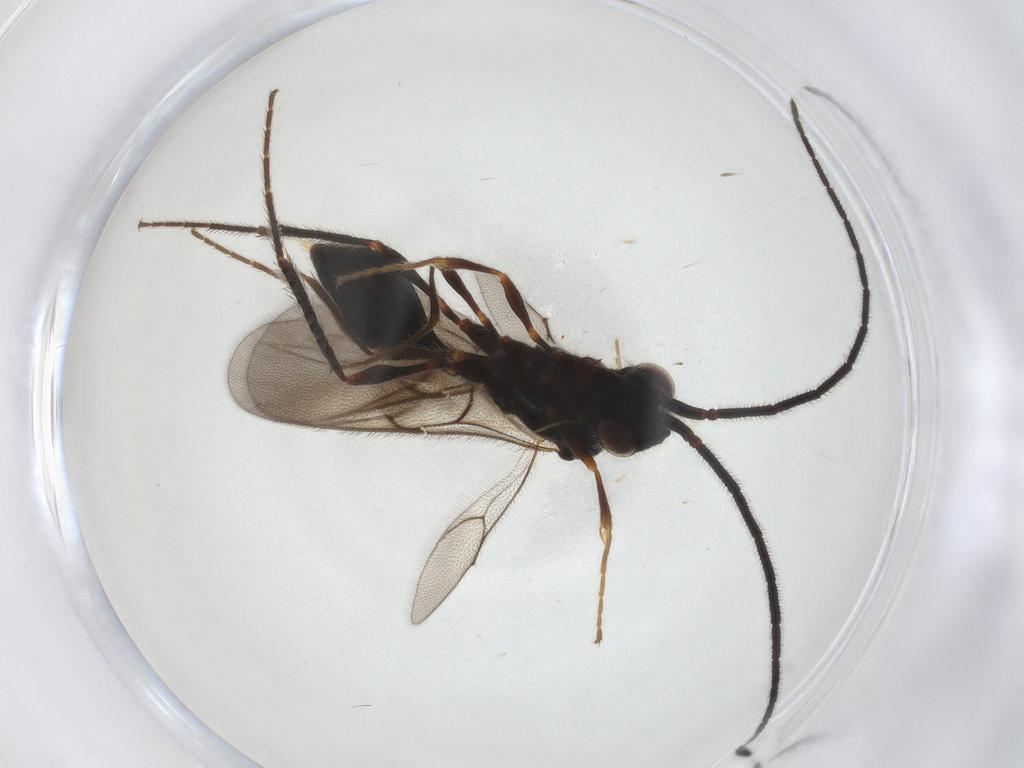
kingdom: Animalia
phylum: Arthropoda
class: Insecta
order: Hymenoptera
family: Diapriidae
